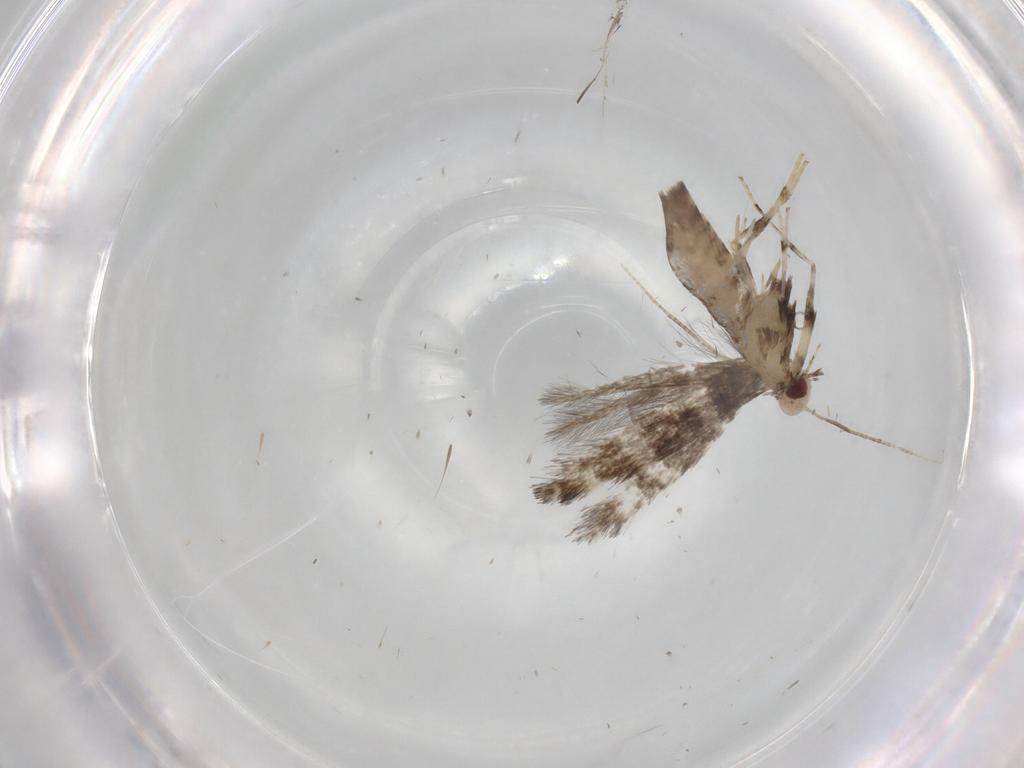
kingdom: Animalia
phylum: Arthropoda
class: Insecta
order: Lepidoptera
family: Gracillariidae
